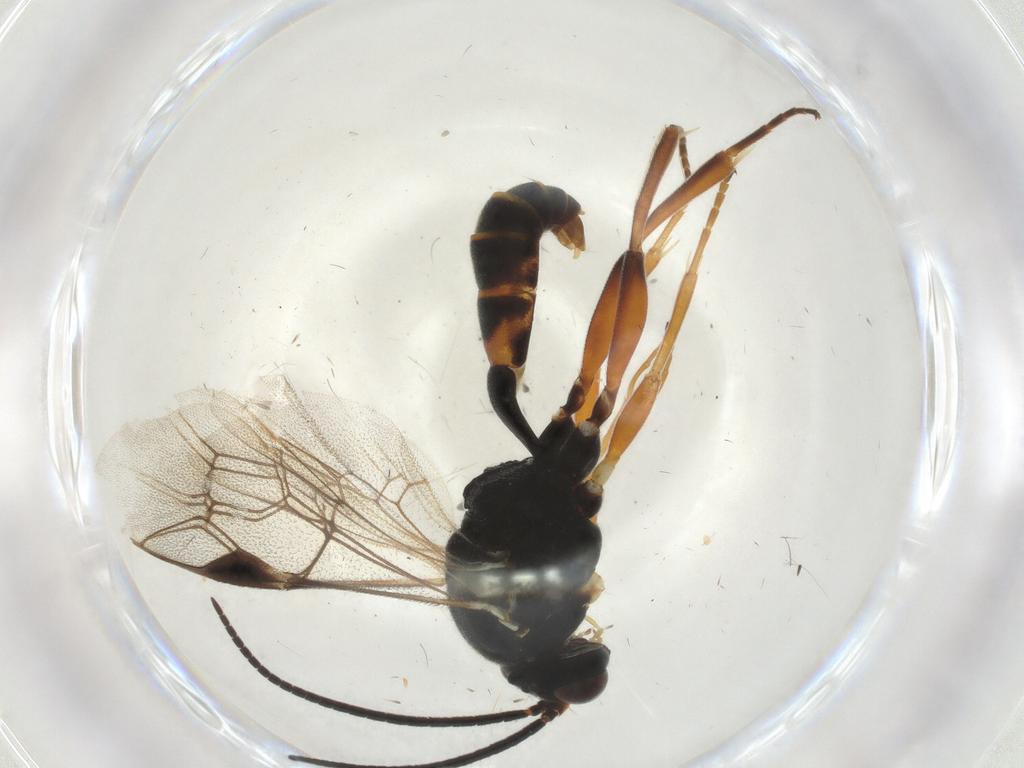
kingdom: Animalia
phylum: Arthropoda
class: Insecta
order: Hymenoptera
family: Ichneumonidae
